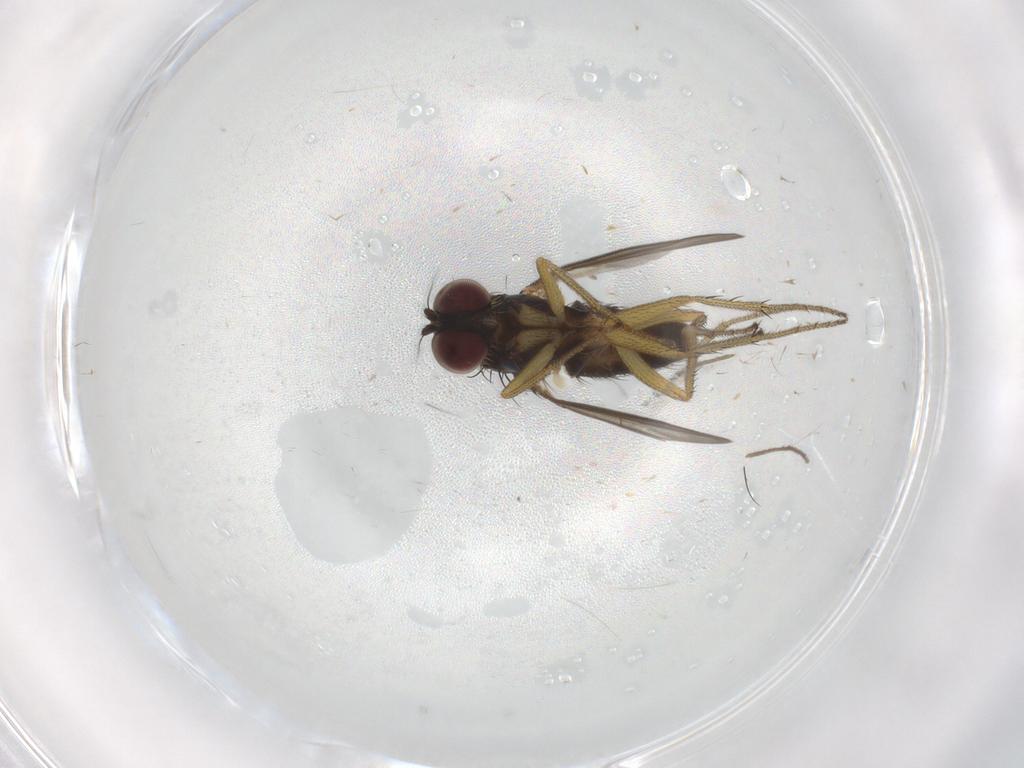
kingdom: Animalia
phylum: Arthropoda
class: Insecta
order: Diptera
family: Chironomidae
